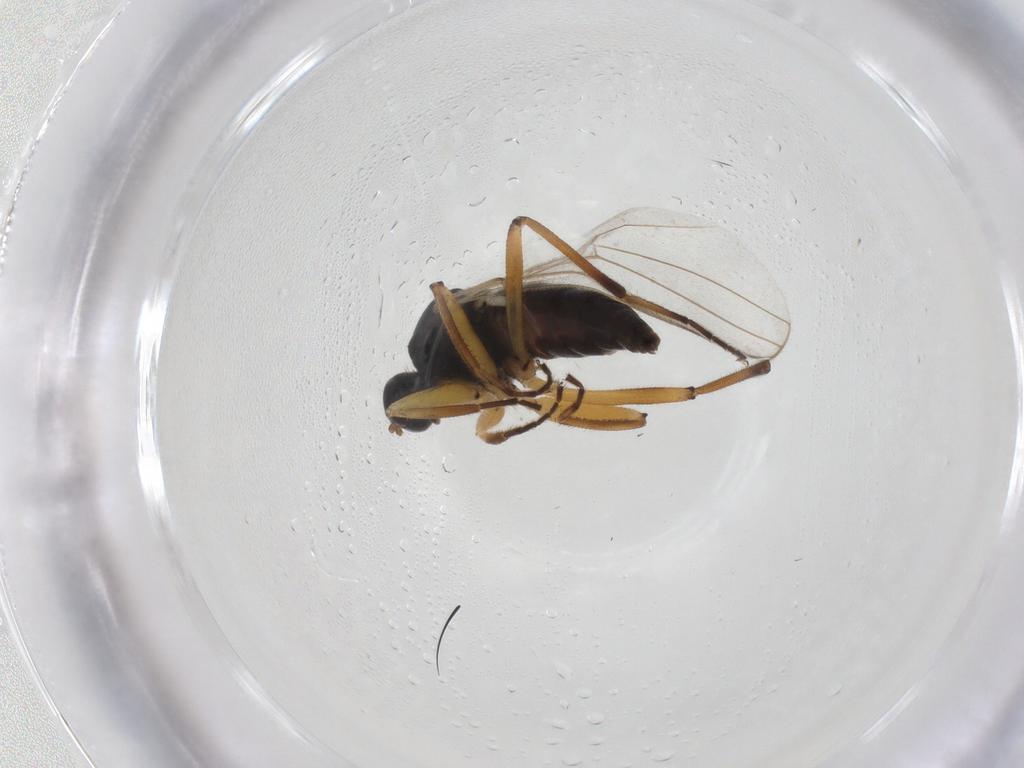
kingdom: Animalia
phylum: Arthropoda
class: Insecta
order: Diptera
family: Hybotidae
